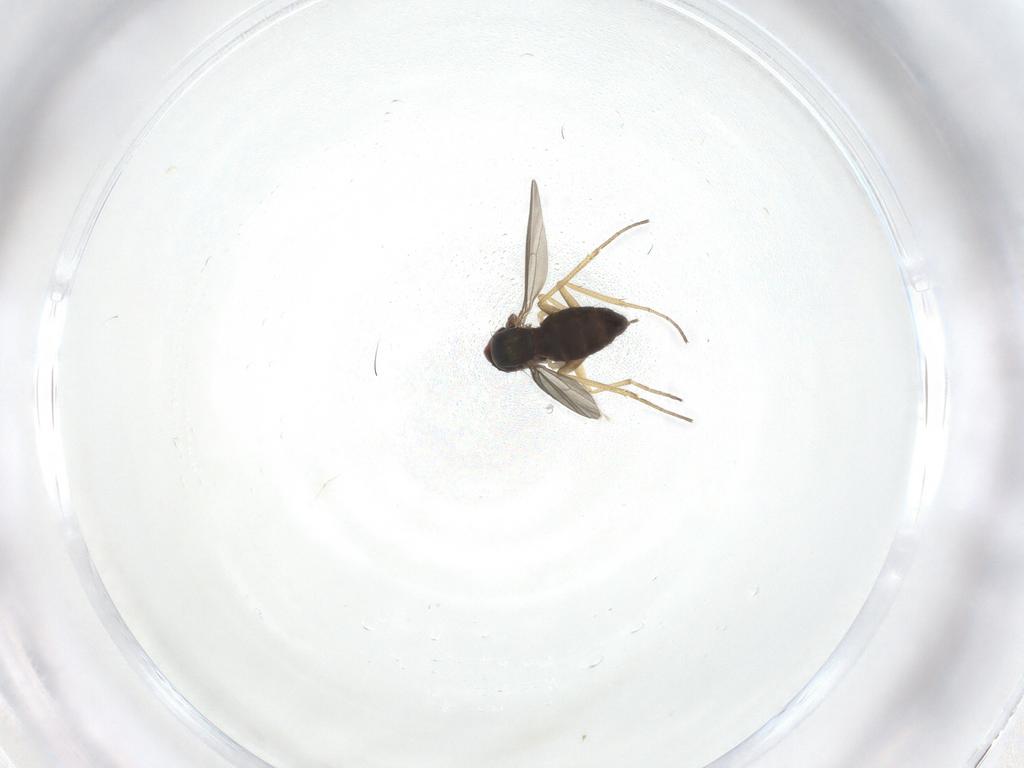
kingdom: Animalia
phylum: Arthropoda
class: Insecta
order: Diptera
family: Dolichopodidae
